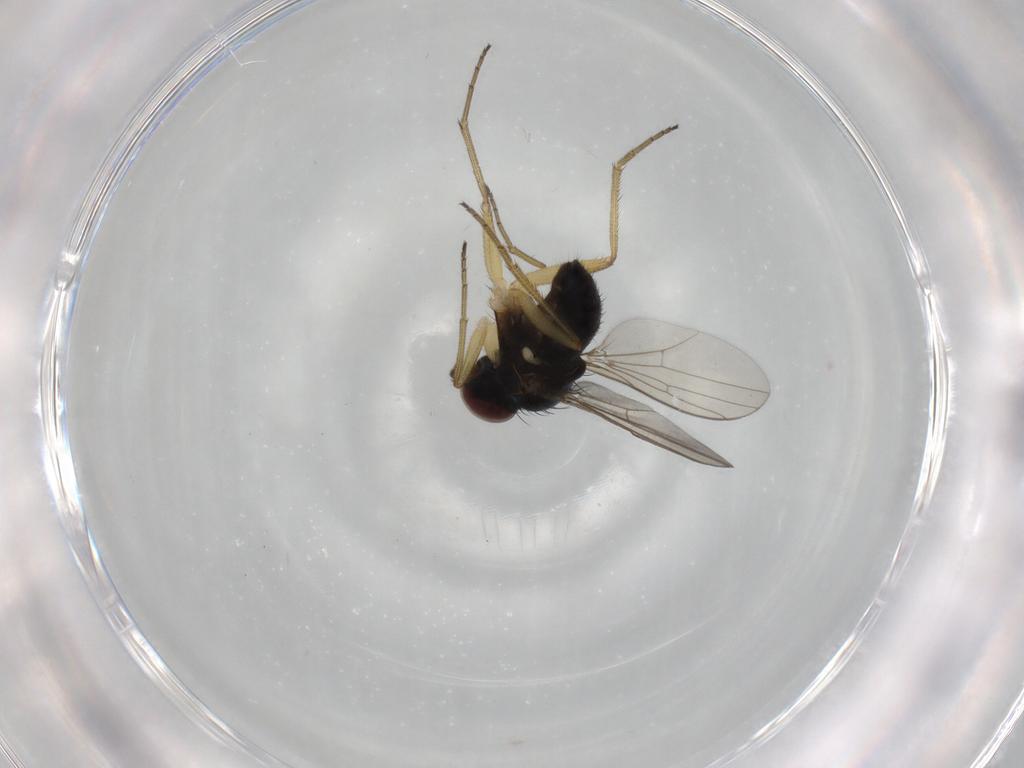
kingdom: Animalia
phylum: Arthropoda
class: Insecta
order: Diptera
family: Dolichopodidae
